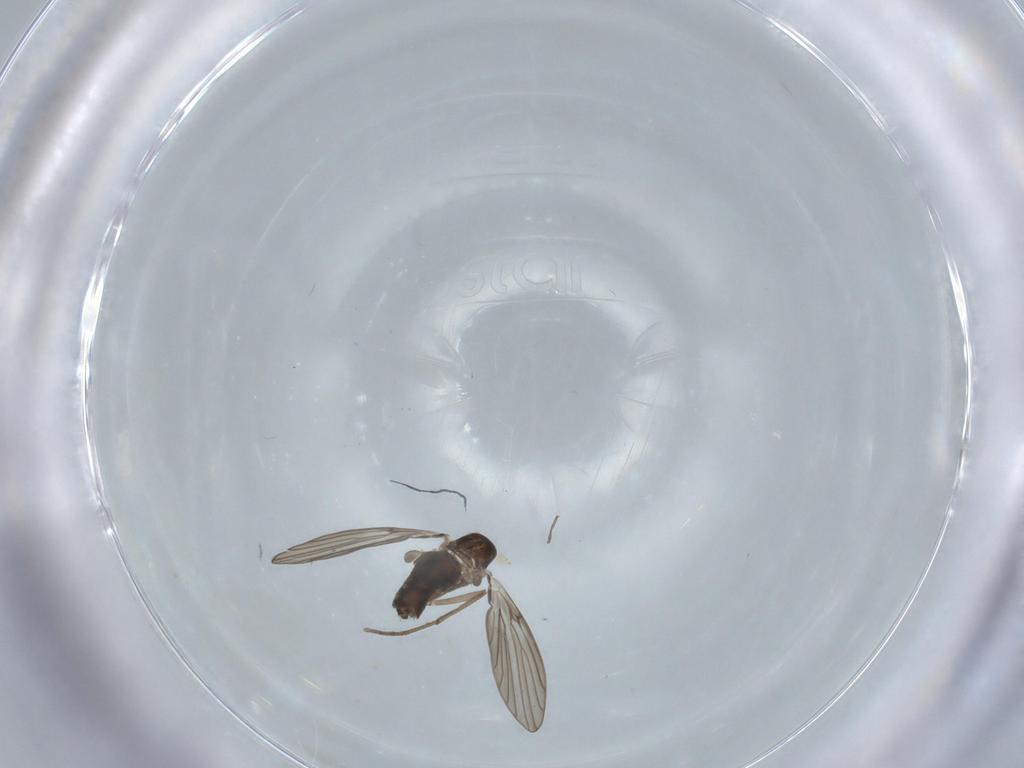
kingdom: Animalia
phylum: Arthropoda
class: Insecta
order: Diptera
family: Psychodidae
